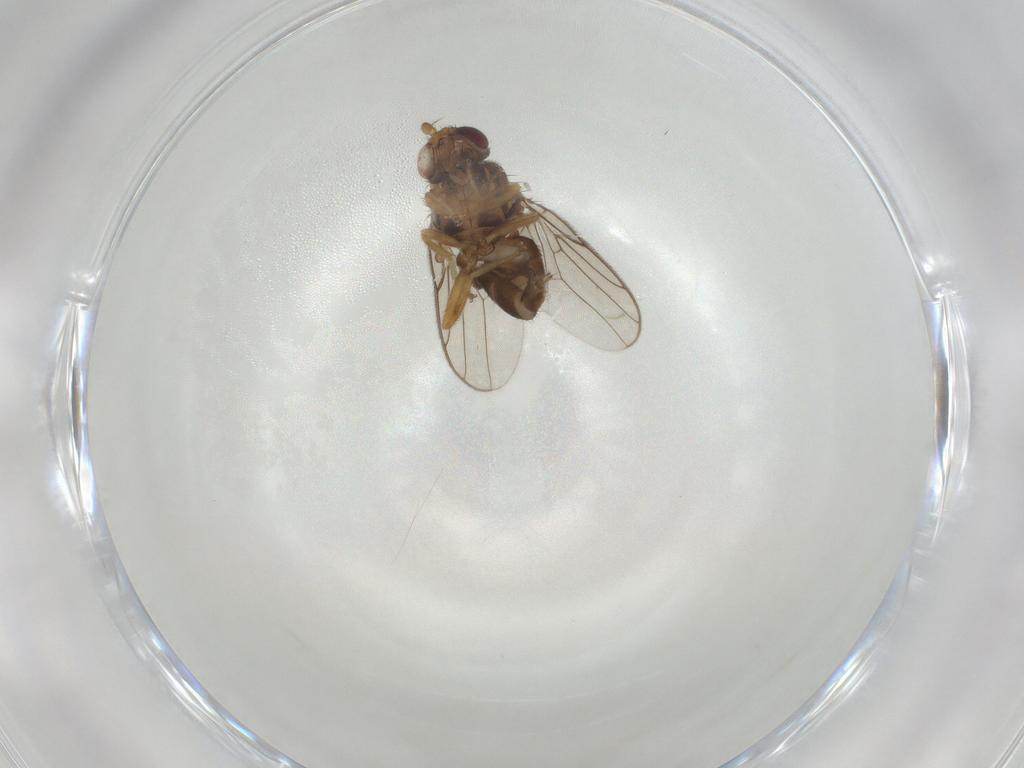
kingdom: Animalia
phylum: Arthropoda
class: Insecta
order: Diptera
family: Chloropidae
